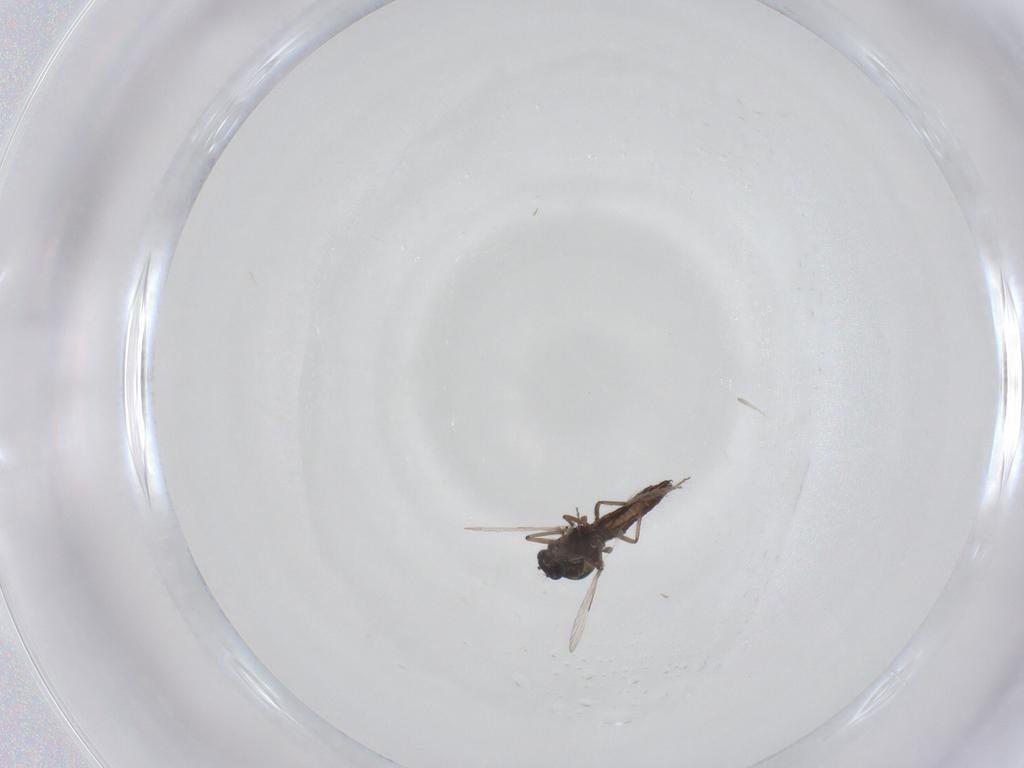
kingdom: Animalia
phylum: Arthropoda
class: Insecta
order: Diptera
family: Ceratopogonidae
